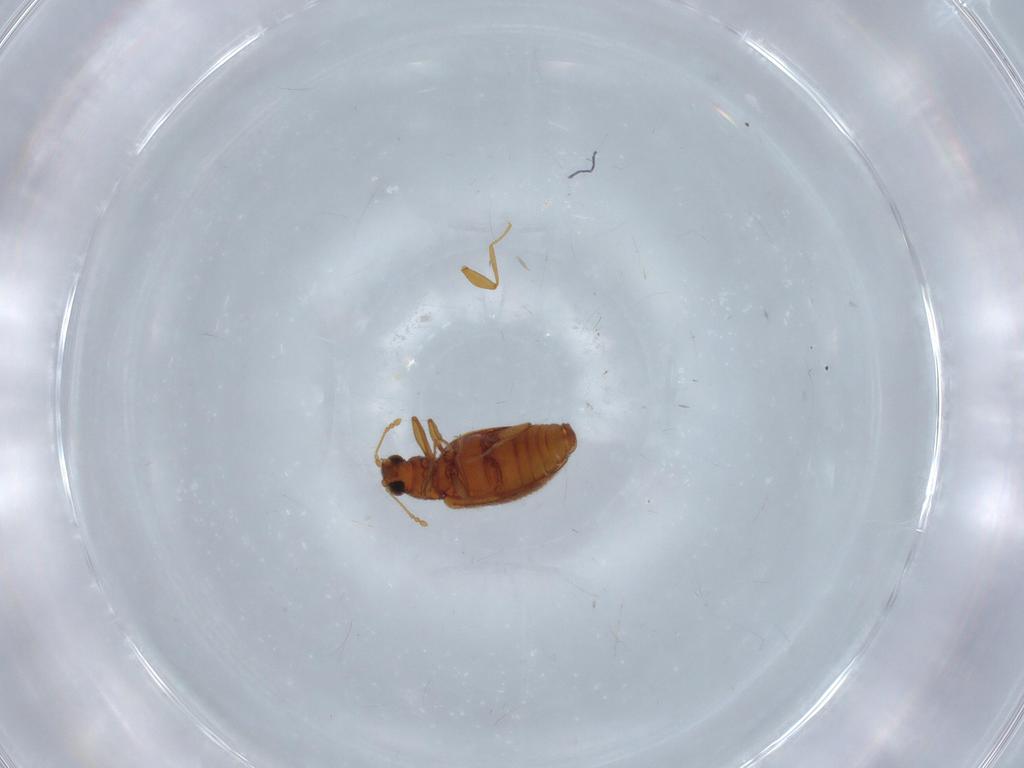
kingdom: Animalia
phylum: Arthropoda
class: Insecta
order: Coleoptera
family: Latridiidae
